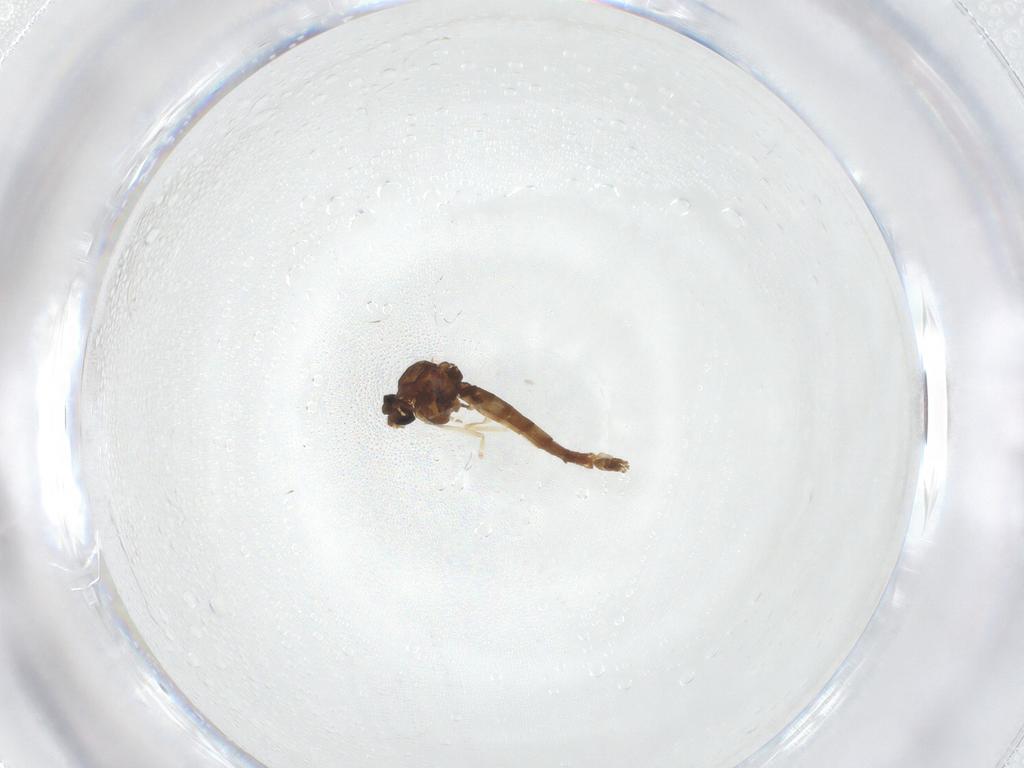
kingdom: Animalia
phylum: Arthropoda
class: Insecta
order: Diptera
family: Chironomidae
